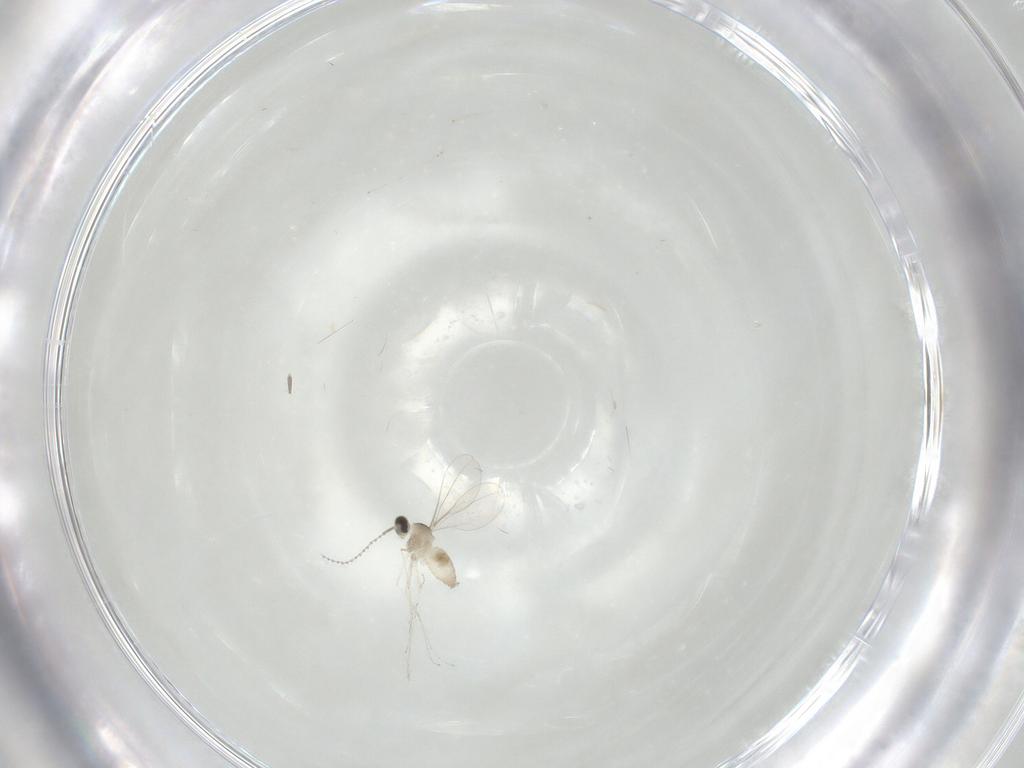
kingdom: Animalia
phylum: Arthropoda
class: Insecta
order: Diptera
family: Cecidomyiidae
